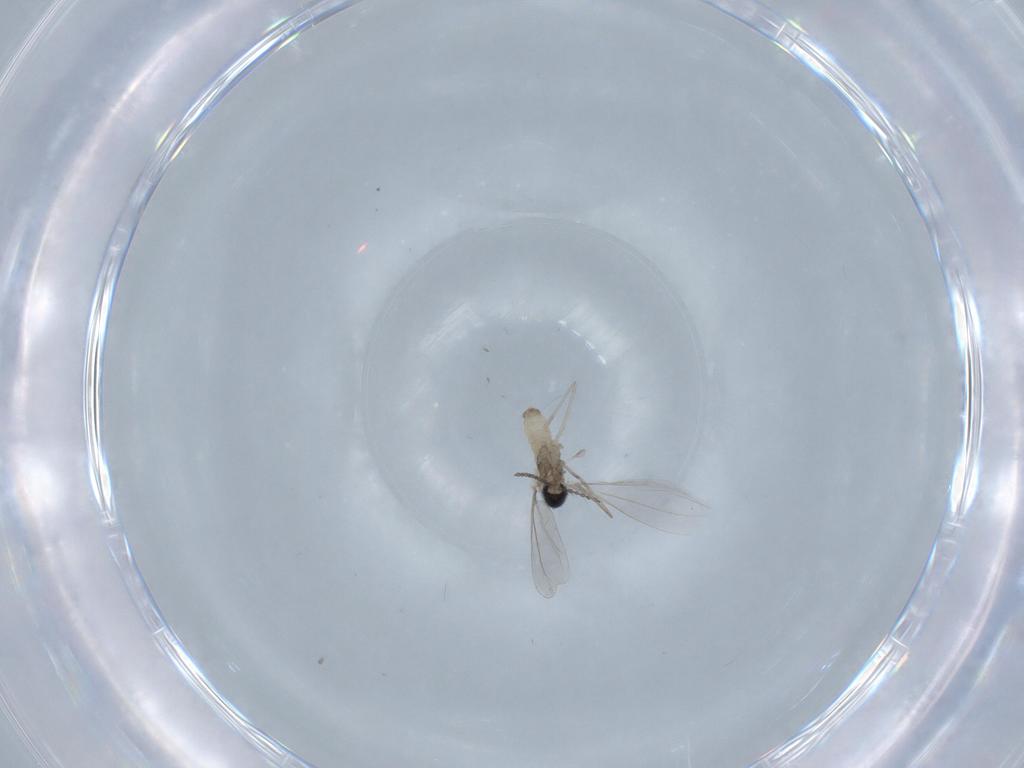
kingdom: Animalia
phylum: Arthropoda
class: Insecta
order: Diptera
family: Cecidomyiidae
